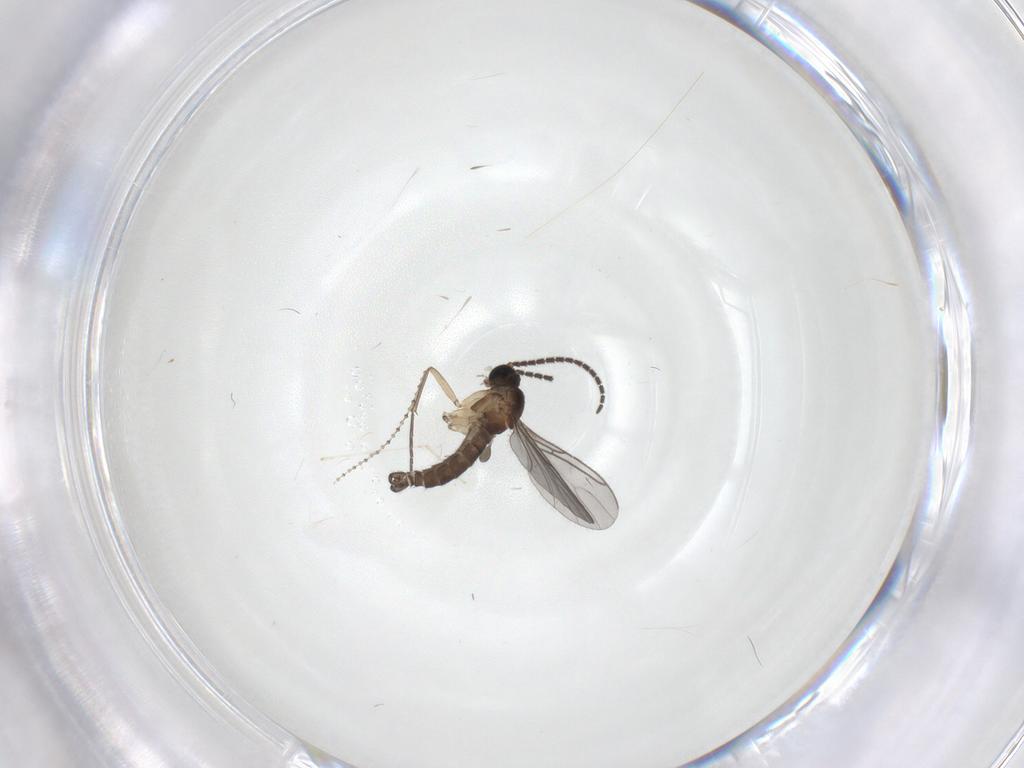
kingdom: Animalia
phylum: Arthropoda
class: Insecta
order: Diptera
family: Sciaridae
